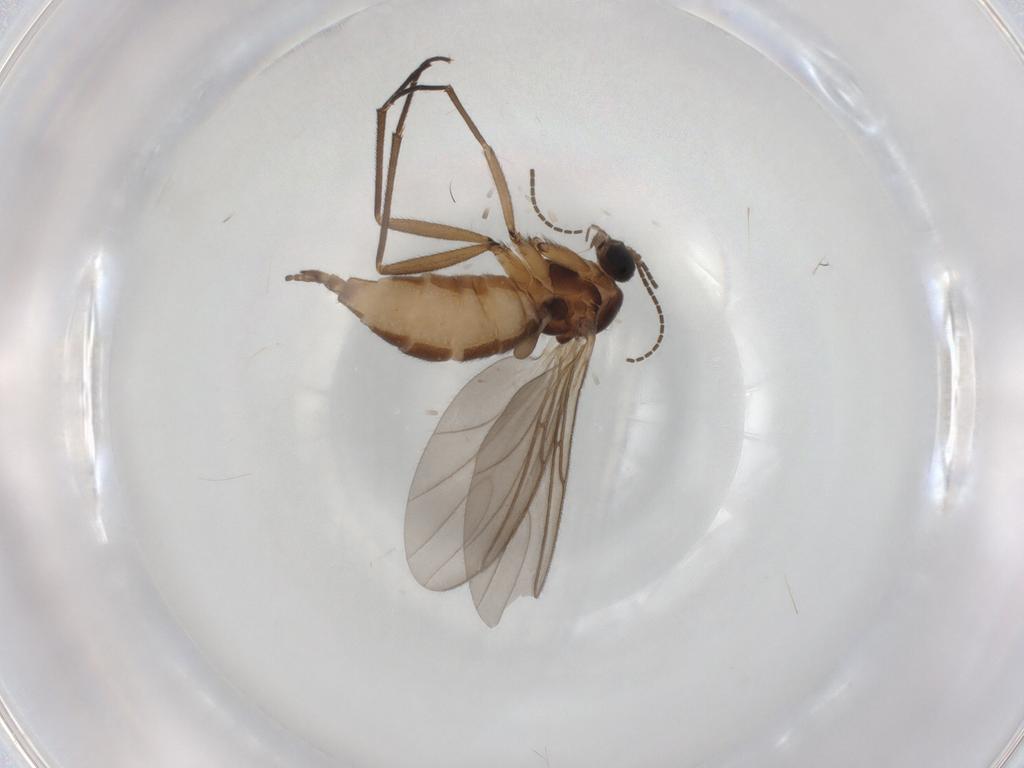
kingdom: Animalia
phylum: Arthropoda
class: Insecta
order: Diptera
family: Sciaridae
